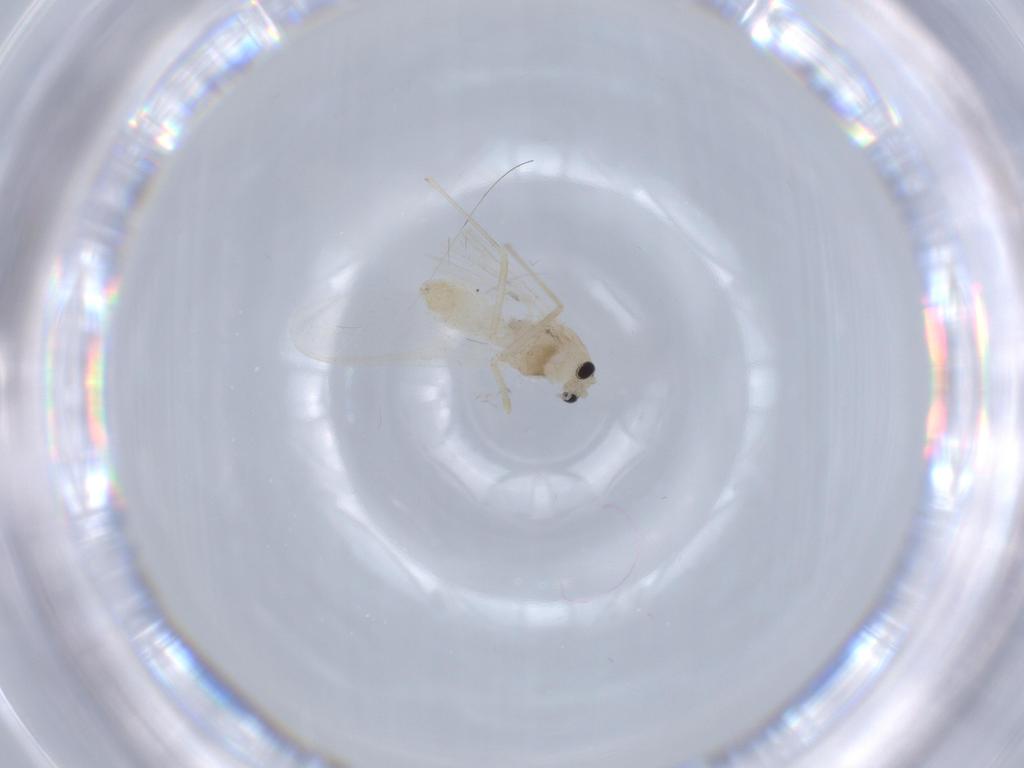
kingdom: Animalia
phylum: Arthropoda
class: Insecta
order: Diptera
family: Chironomidae
